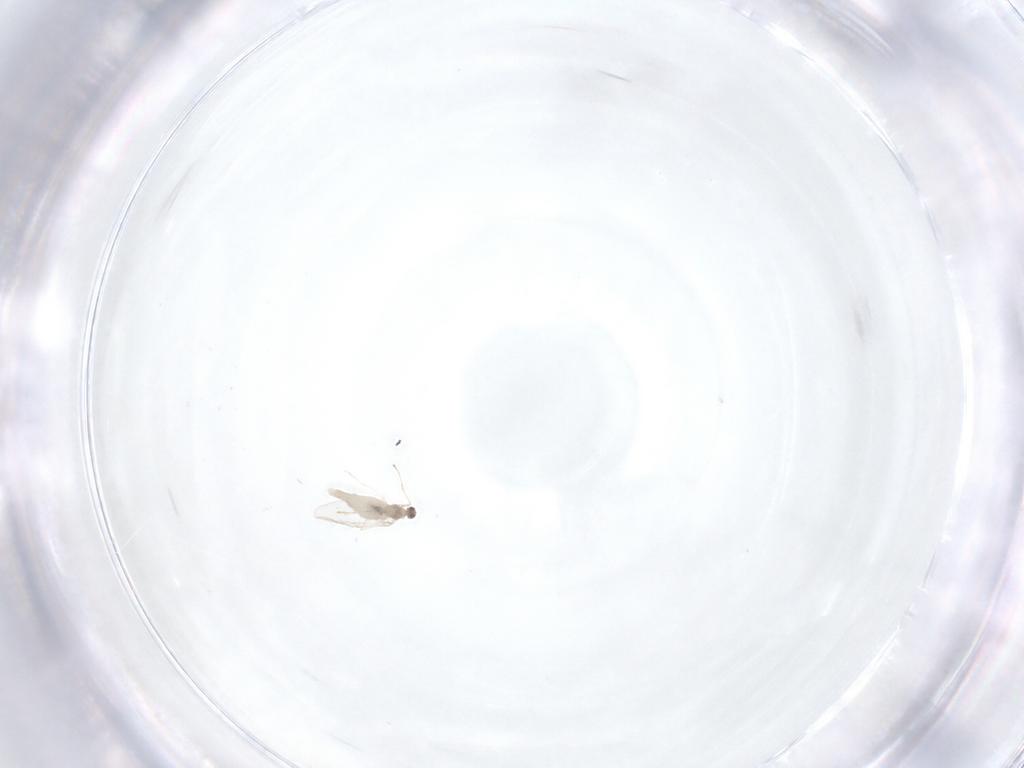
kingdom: Animalia
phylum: Arthropoda
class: Insecta
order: Diptera
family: Cecidomyiidae
